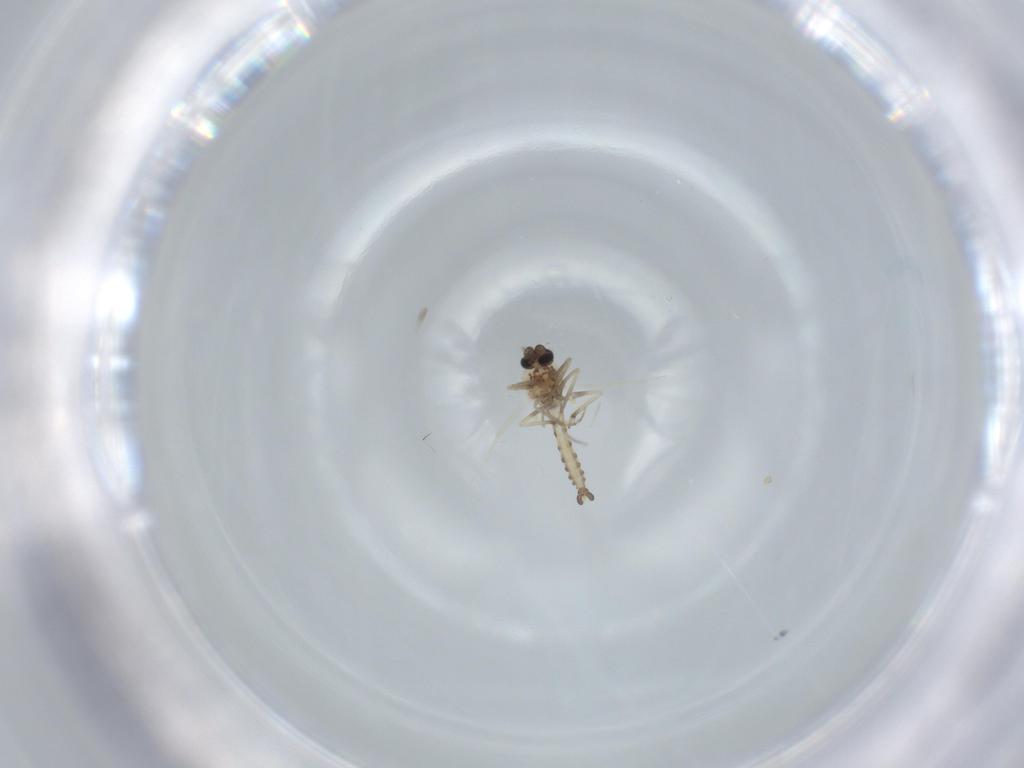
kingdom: Animalia
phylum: Arthropoda
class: Insecta
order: Diptera
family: Ceratopogonidae
